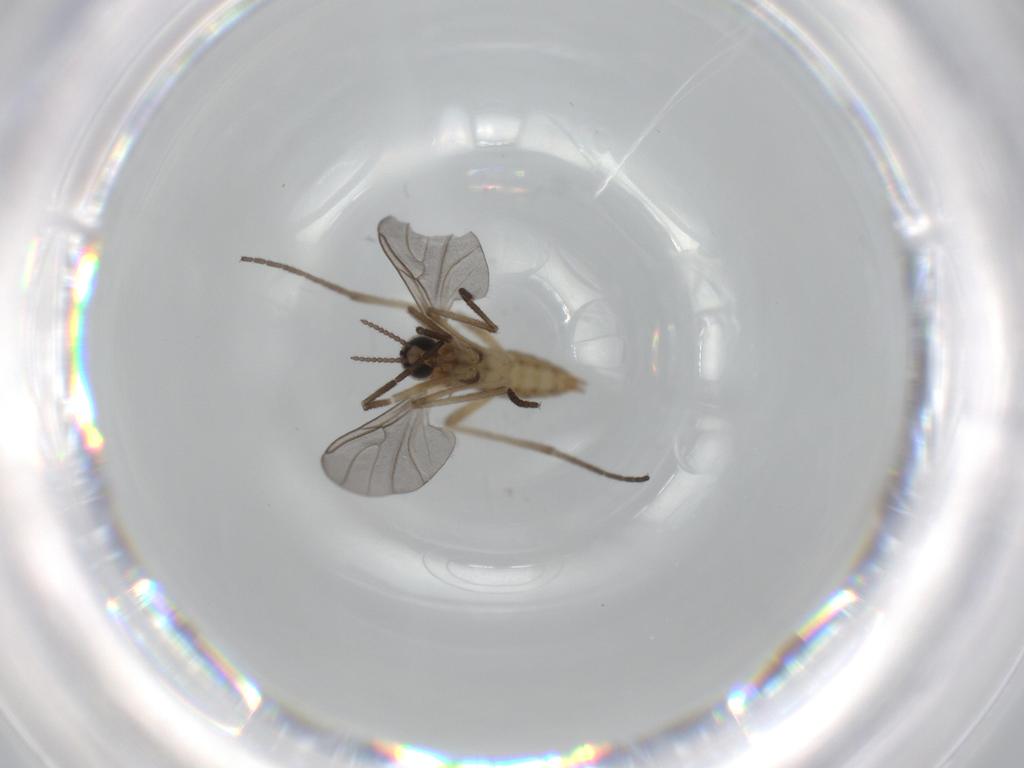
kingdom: Animalia
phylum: Arthropoda
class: Insecta
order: Diptera
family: Cecidomyiidae
